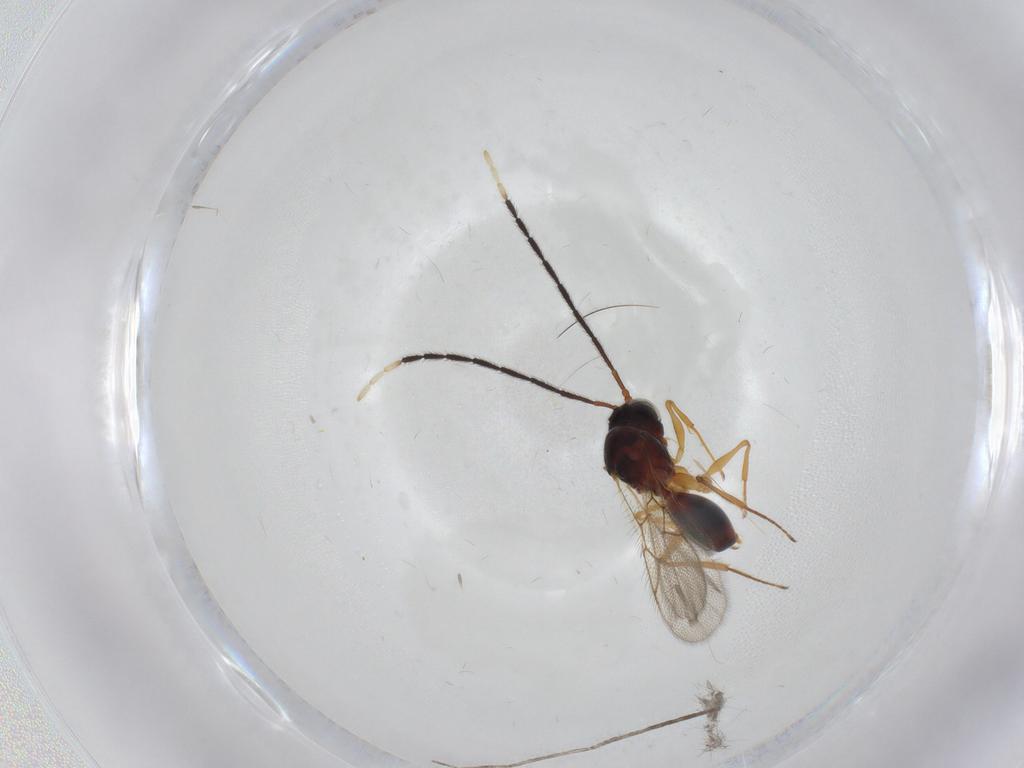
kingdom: Animalia
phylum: Arthropoda
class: Insecta
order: Hymenoptera
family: Figitidae
